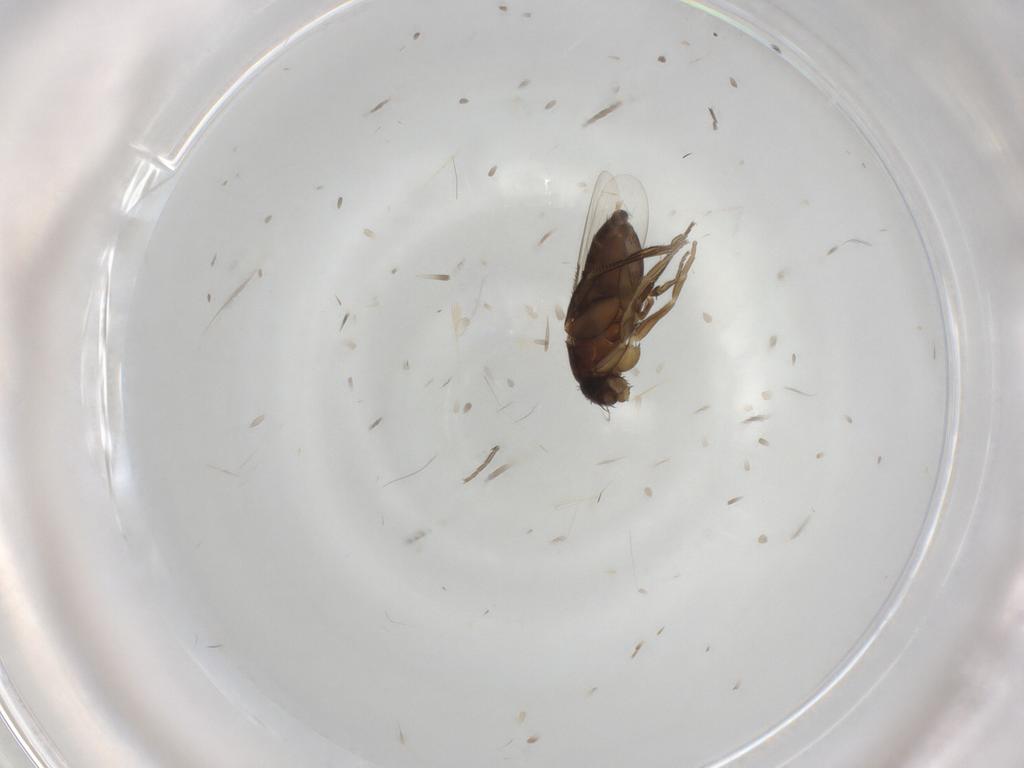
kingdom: Animalia
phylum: Arthropoda
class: Insecta
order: Diptera
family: Phoridae
